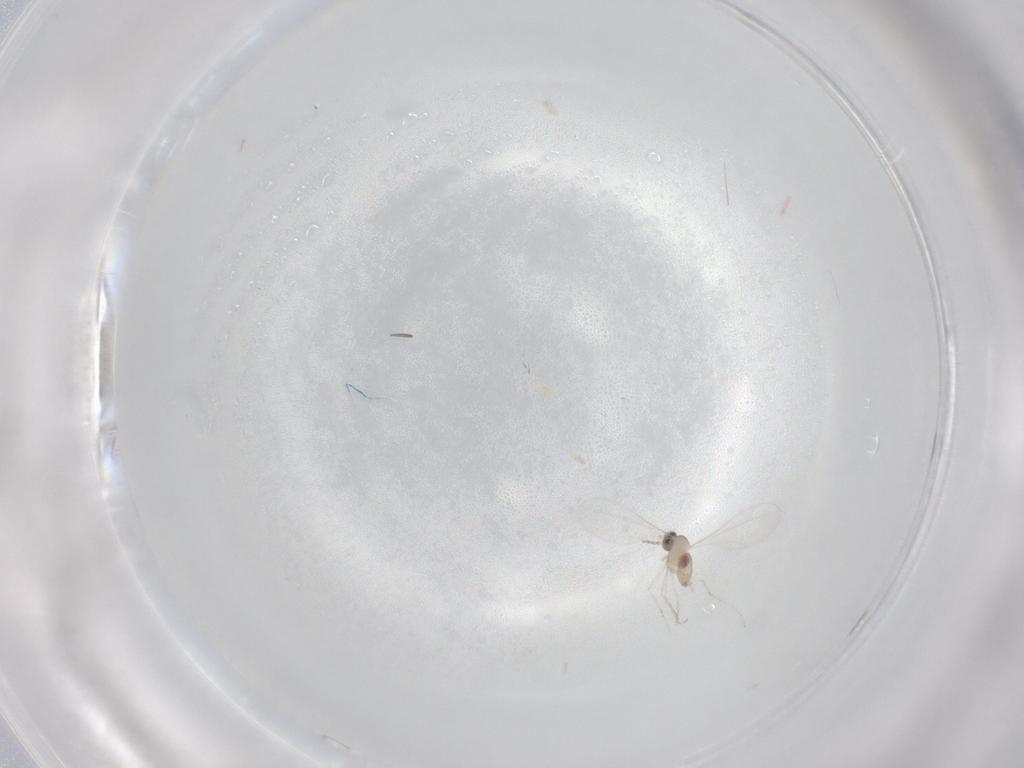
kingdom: Animalia
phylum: Arthropoda
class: Insecta
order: Diptera
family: Cecidomyiidae
